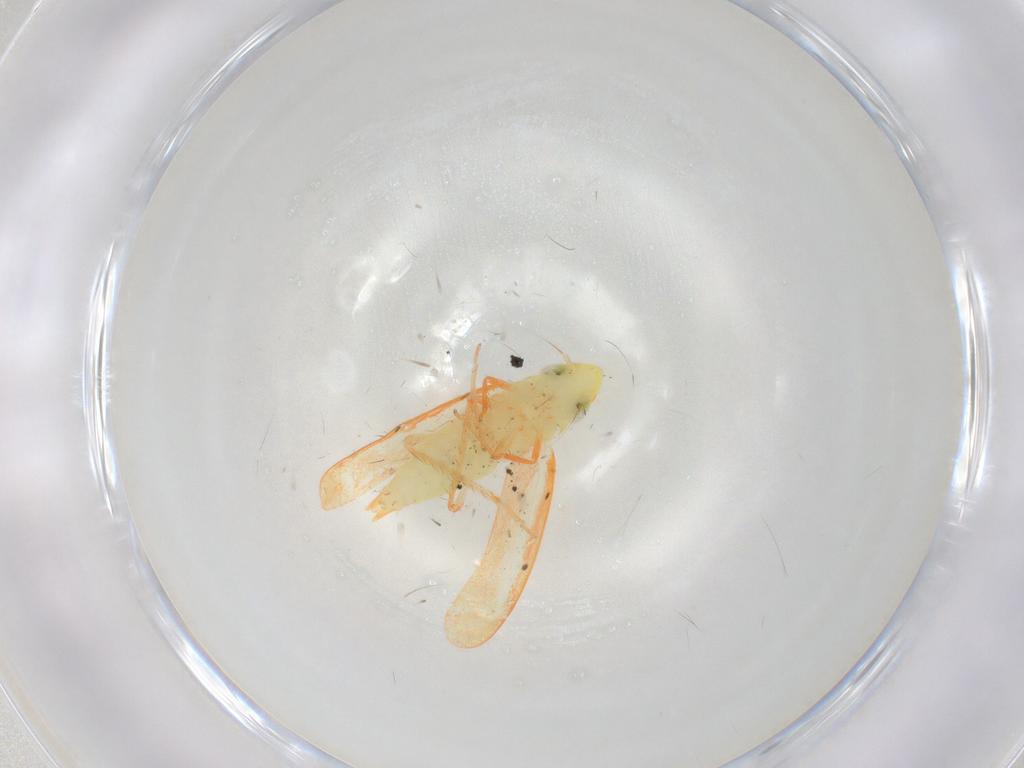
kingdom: Animalia
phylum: Arthropoda
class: Insecta
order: Hemiptera
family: Cicadellidae
